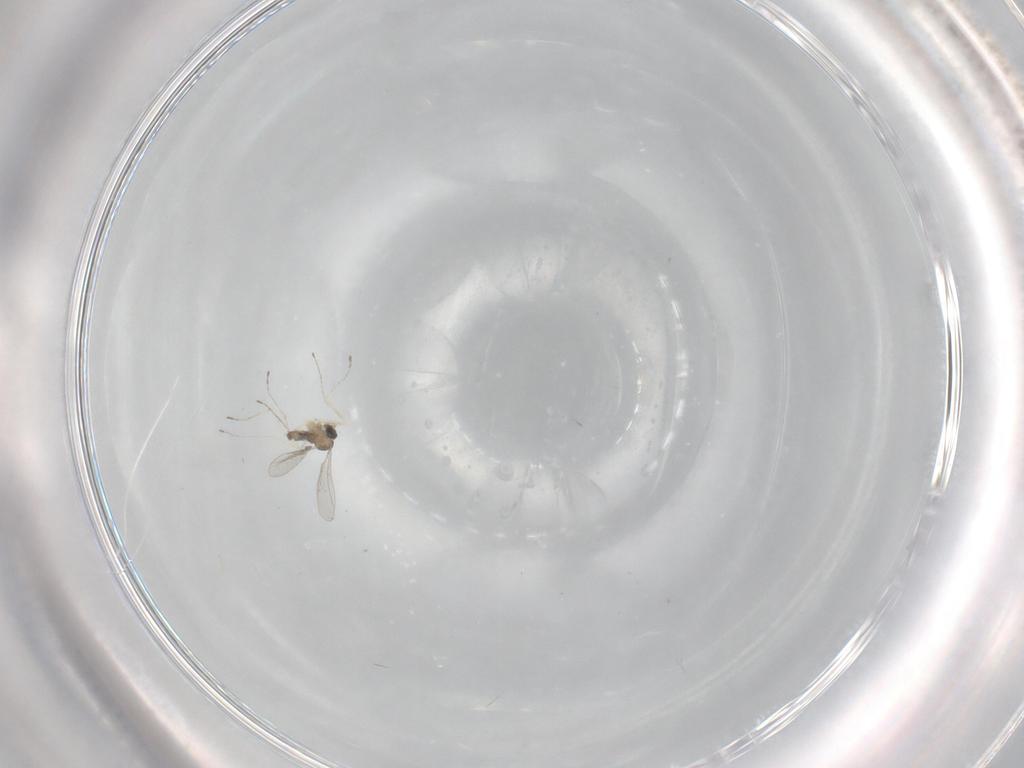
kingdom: Animalia
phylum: Arthropoda
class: Insecta
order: Diptera
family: Cecidomyiidae
